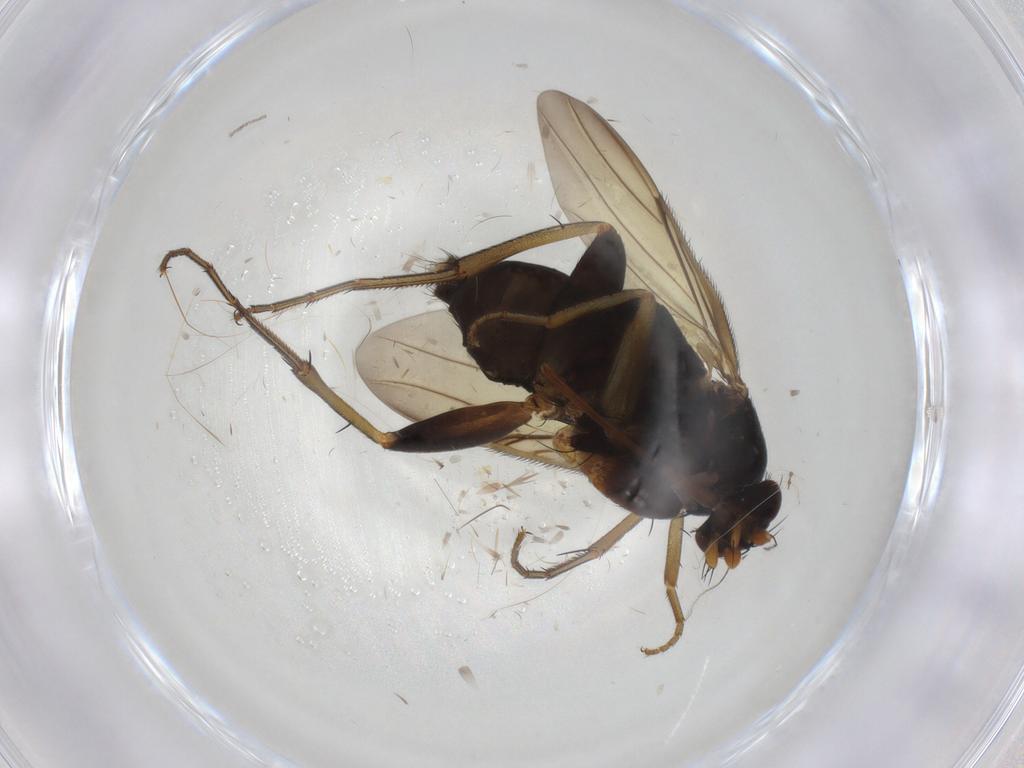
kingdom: Animalia
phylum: Arthropoda
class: Insecta
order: Diptera
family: Phoridae
